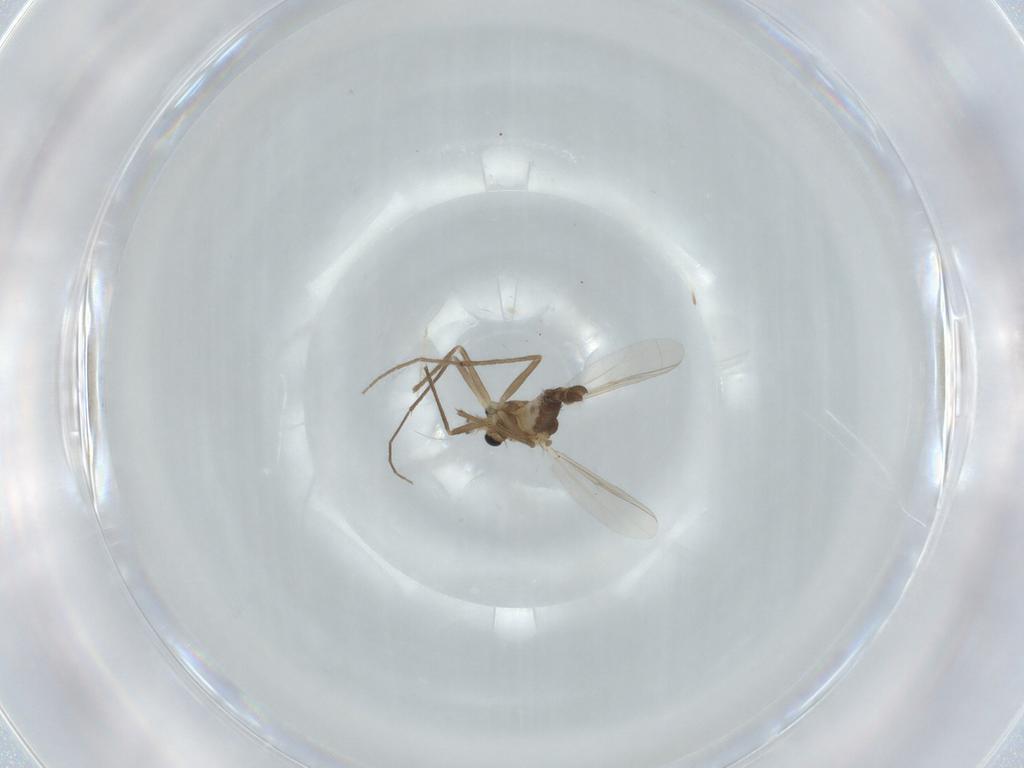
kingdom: Animalia
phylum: Arthropoda
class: Insecta
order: Diptera
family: Chironomidae
